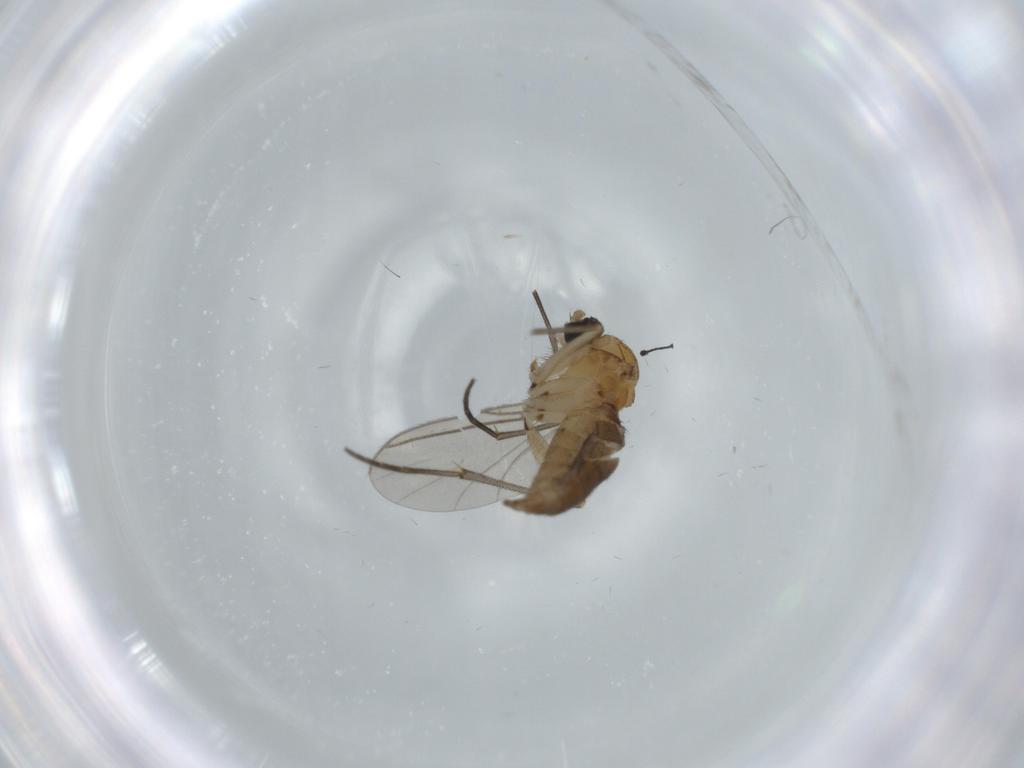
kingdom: Animalia
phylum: Arthropoda
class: Insecta
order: Diptera
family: Sciaridae
